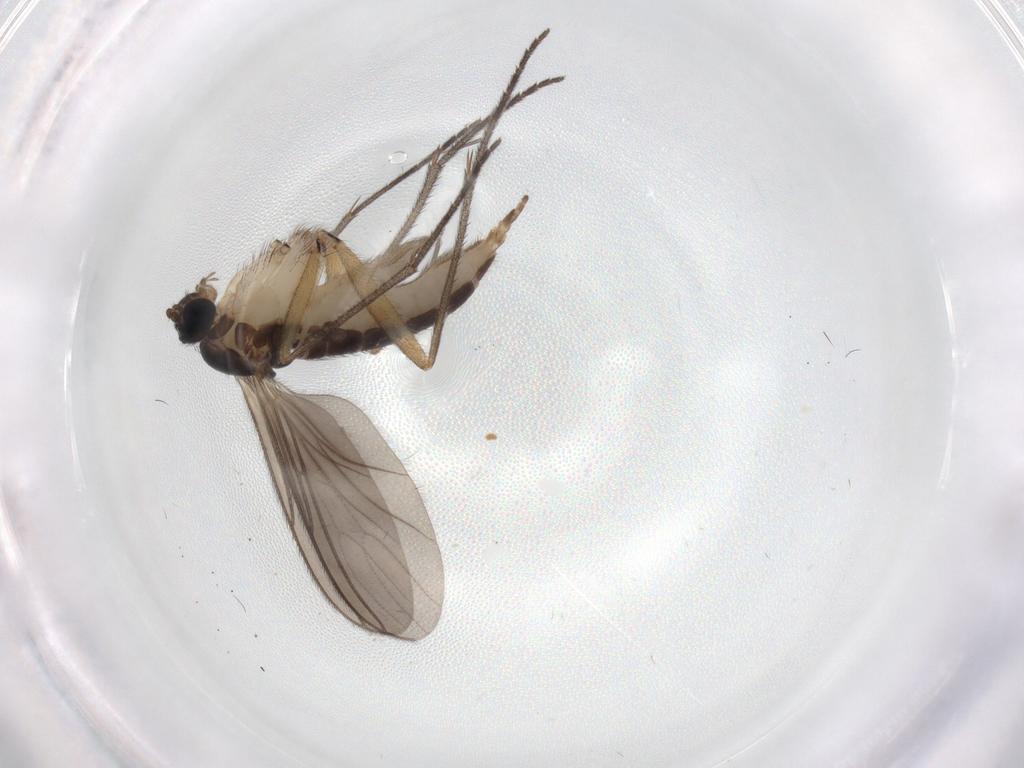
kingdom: Animalia
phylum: Arthropoda
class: Insecta
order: Diptera
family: Sciaridae
